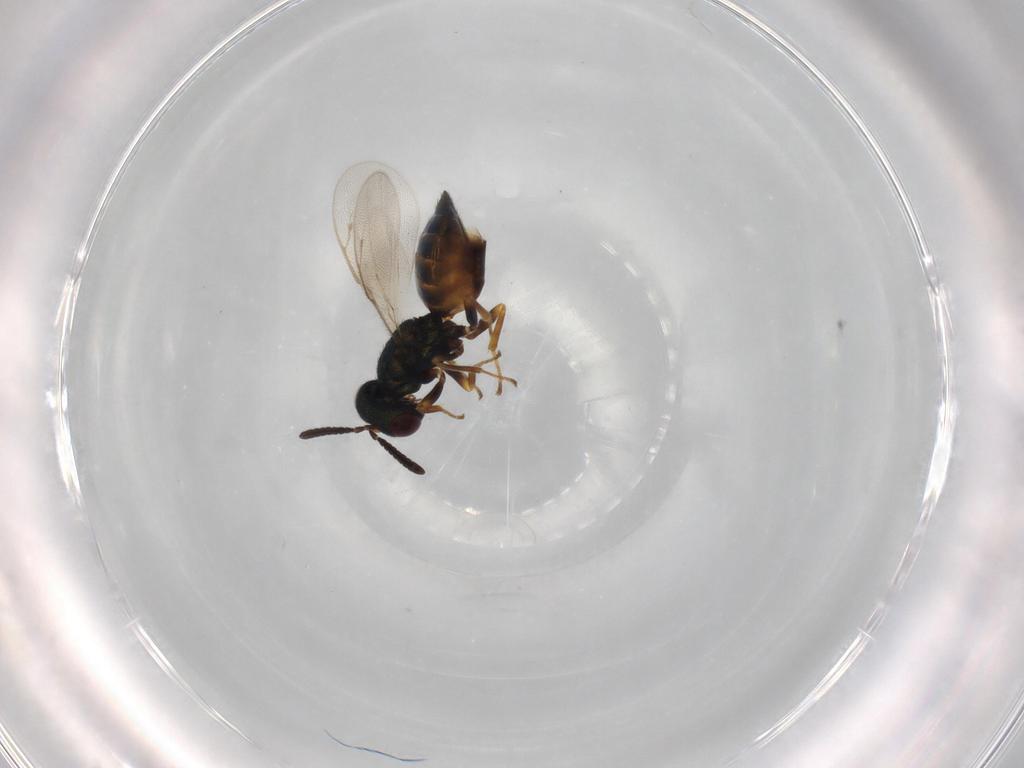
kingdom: Animalia
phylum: Arthropoda
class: Insecta
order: Hymenoptera
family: Pteromalidae
